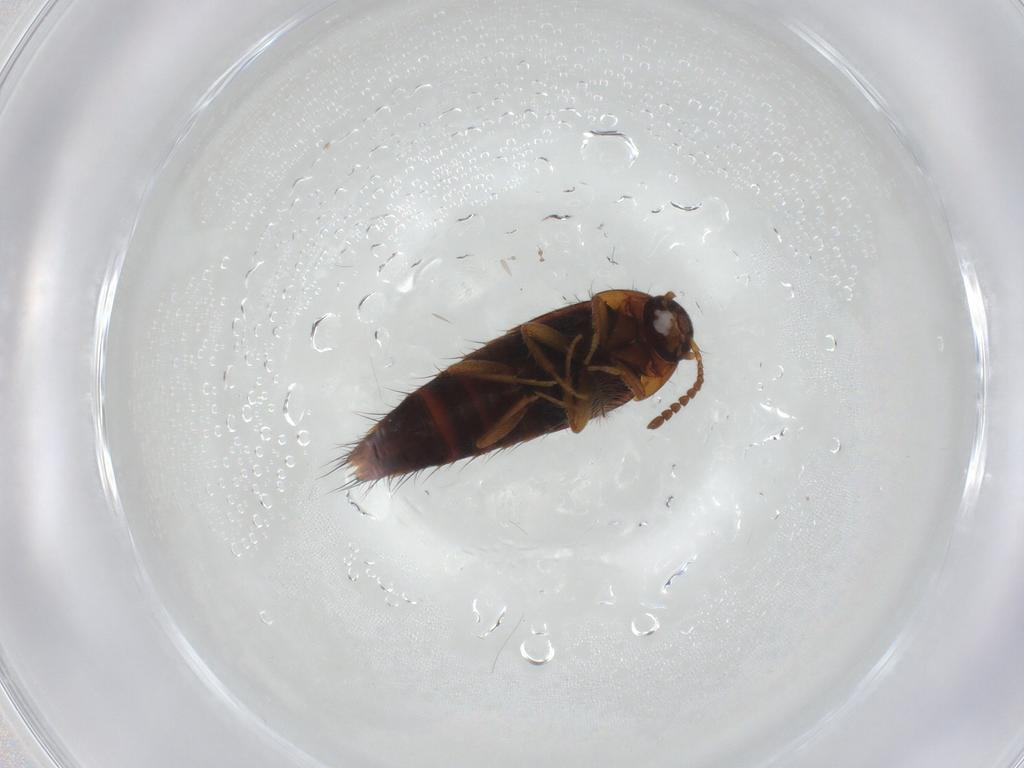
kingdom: Animalia
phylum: Arthropoda
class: Insecta
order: Coleoptera
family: Staphylinidae
